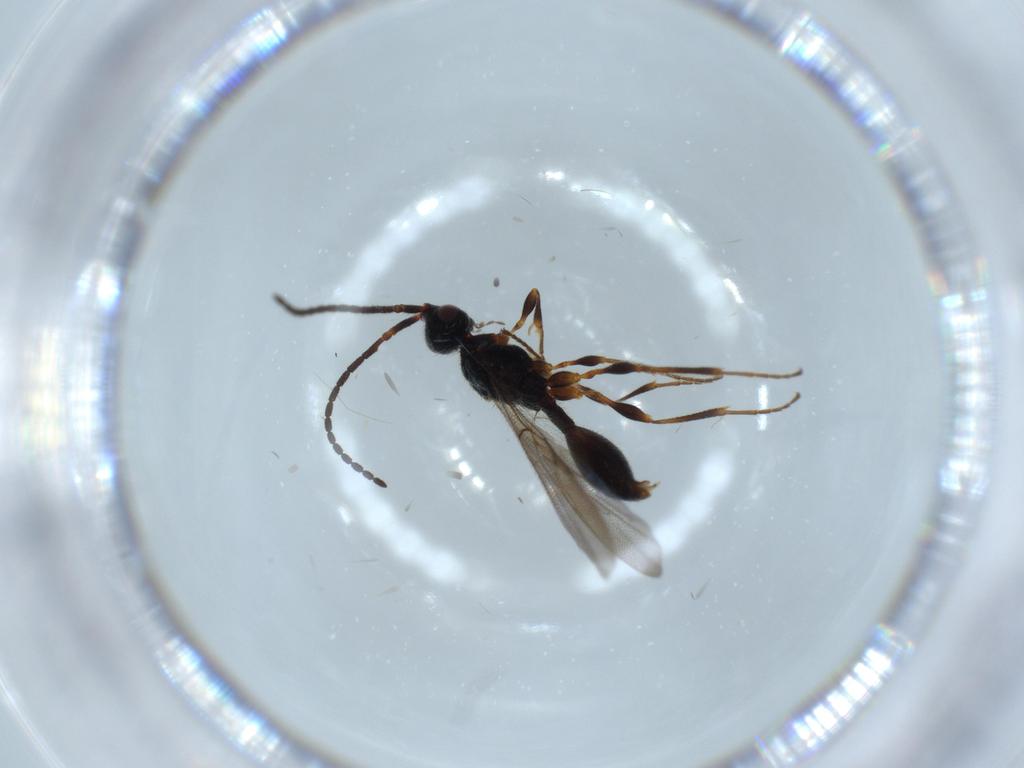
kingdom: Animalia
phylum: Arthropoda
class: Insecta
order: Hymenoptera
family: Diapriidae
